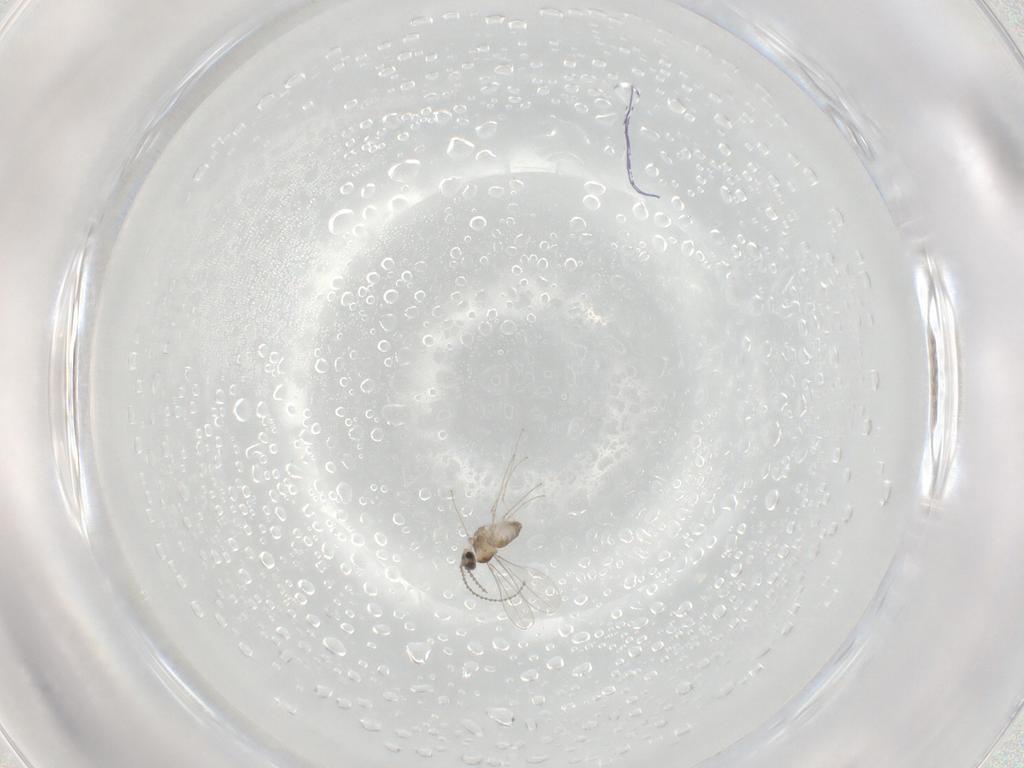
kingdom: Animalia
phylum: Arthropoda
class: Insecta
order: Diptera
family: Cecidomyiidae
